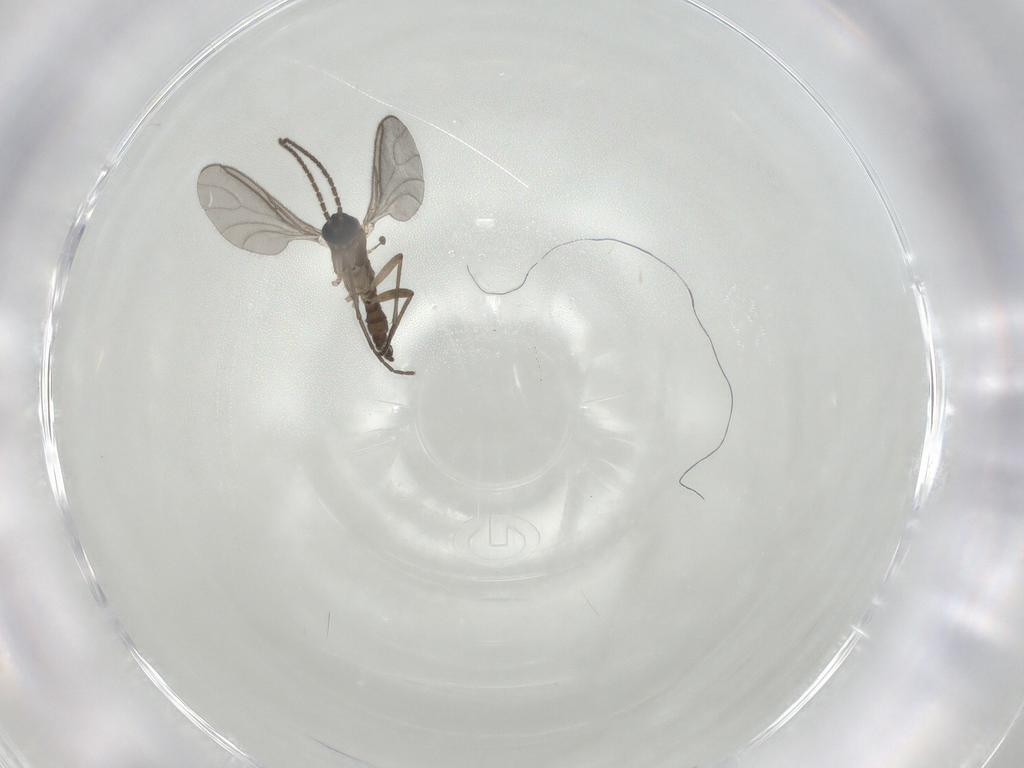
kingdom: Animalia
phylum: Arthropoda
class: Insecta
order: Diptera
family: Sciaridae
